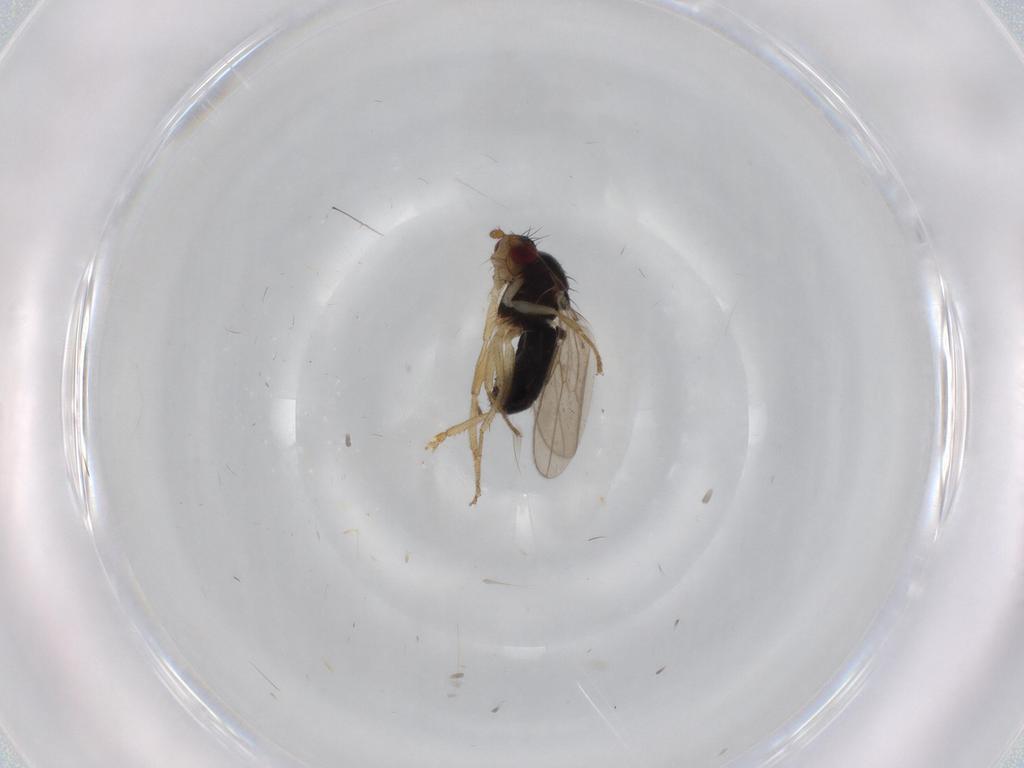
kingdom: Animalia
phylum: Arthropoda
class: Insecta
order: Diptera
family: Sphaeroceridae
